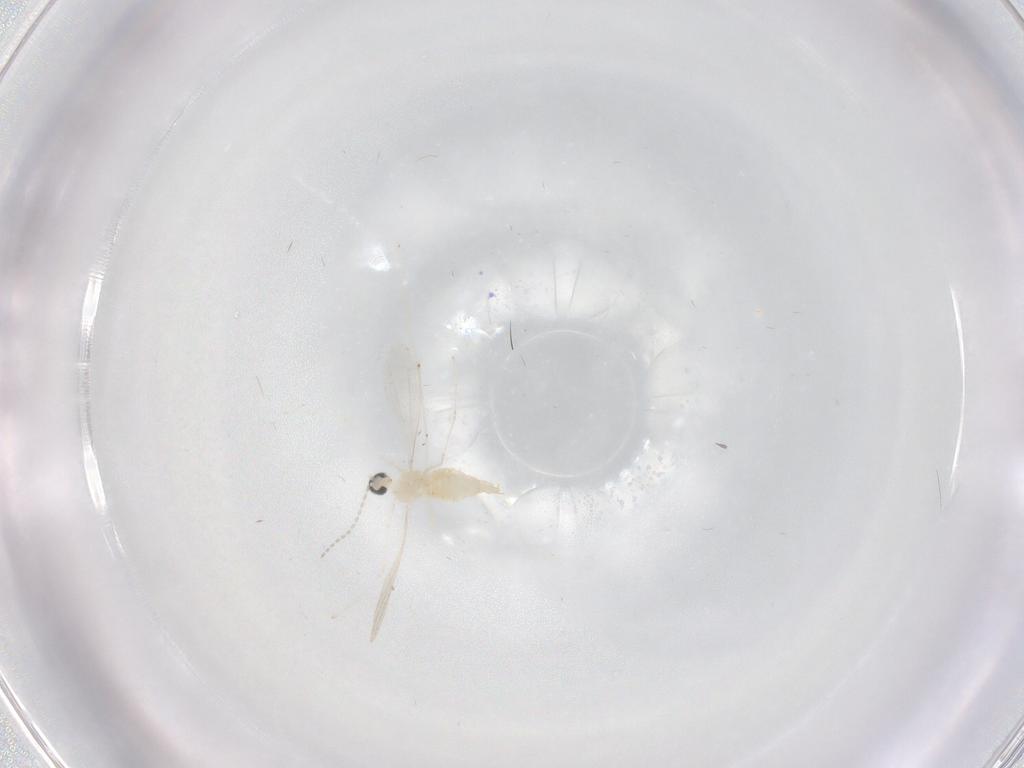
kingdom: Animalia
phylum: Arthropoda
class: Insecta
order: Diptera
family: Cecidomyiidae
